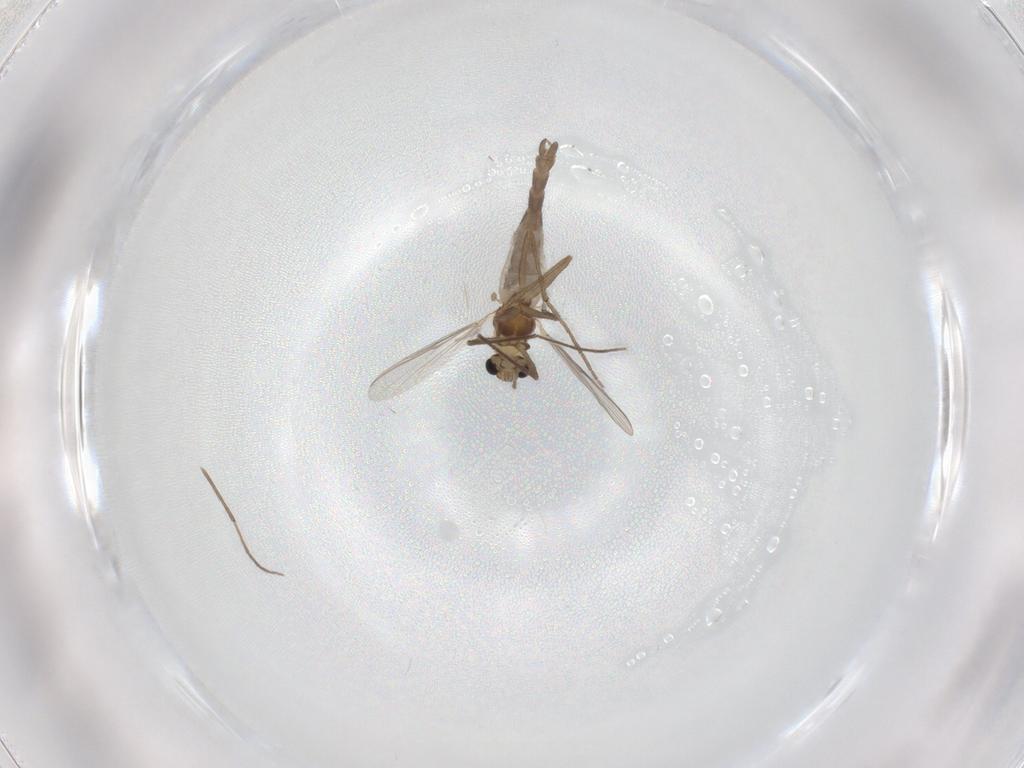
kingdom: Animalia
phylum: Arthropoda
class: Insecta
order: Diptera
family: Chironomidae
